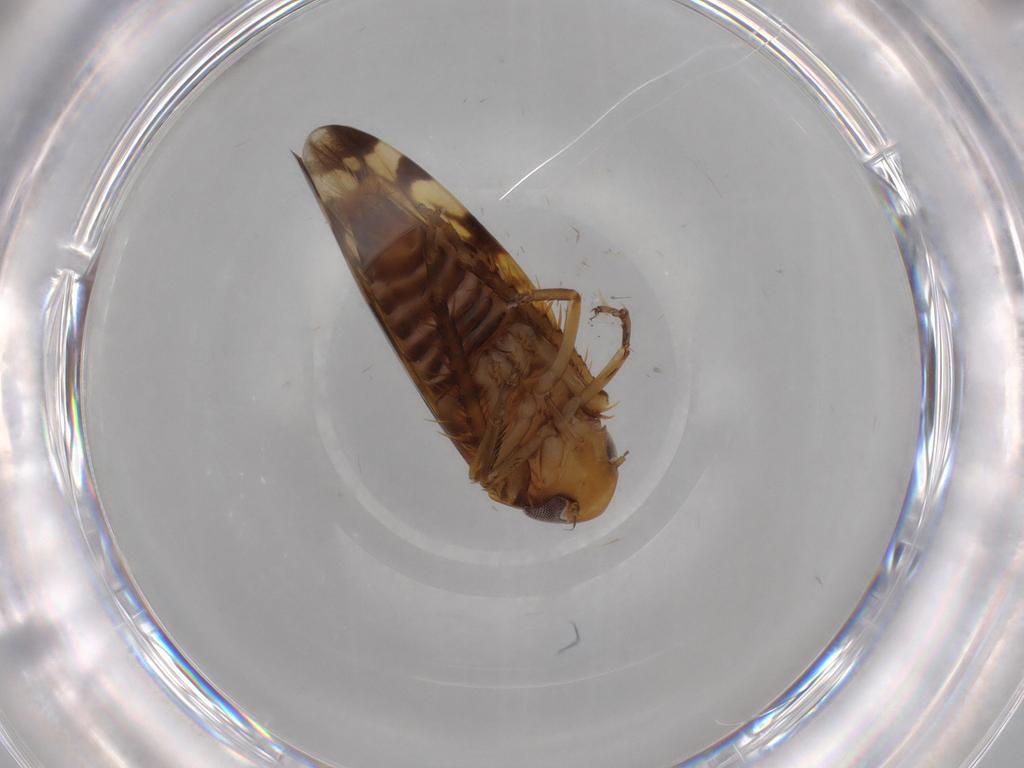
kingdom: Animalia
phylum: Arthropoda
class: Insecta
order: Hemiptera
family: Cicadellidae
